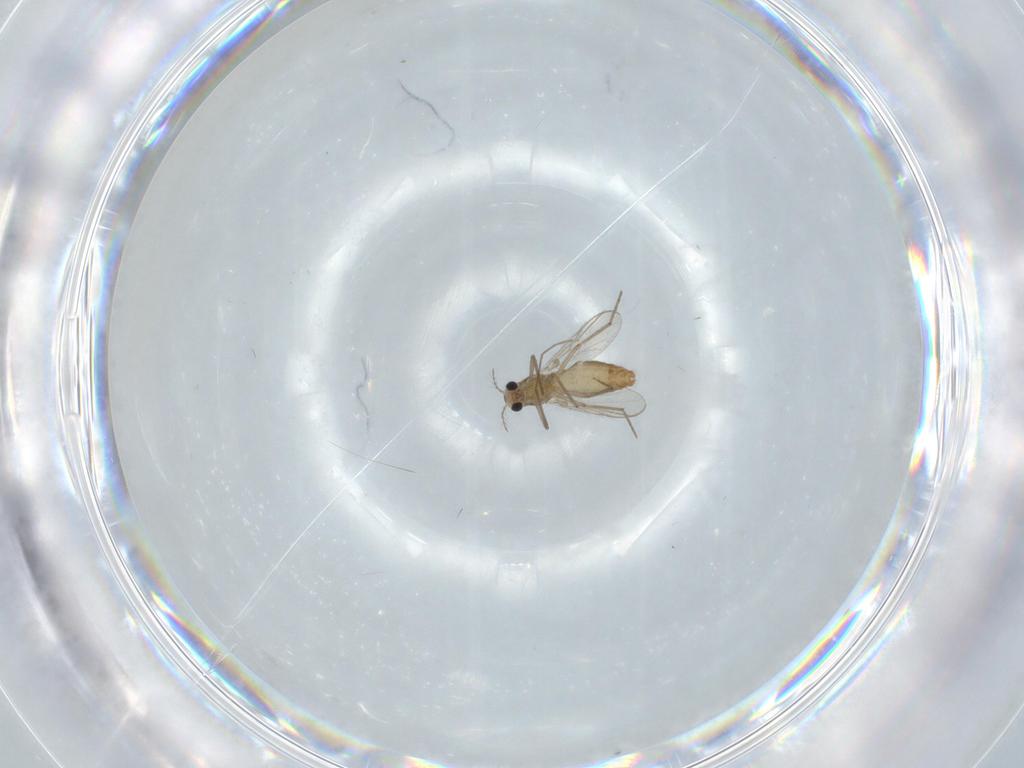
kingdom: Animalia
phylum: Arthropoda
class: Insecta
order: Diptera
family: Chironomidae
